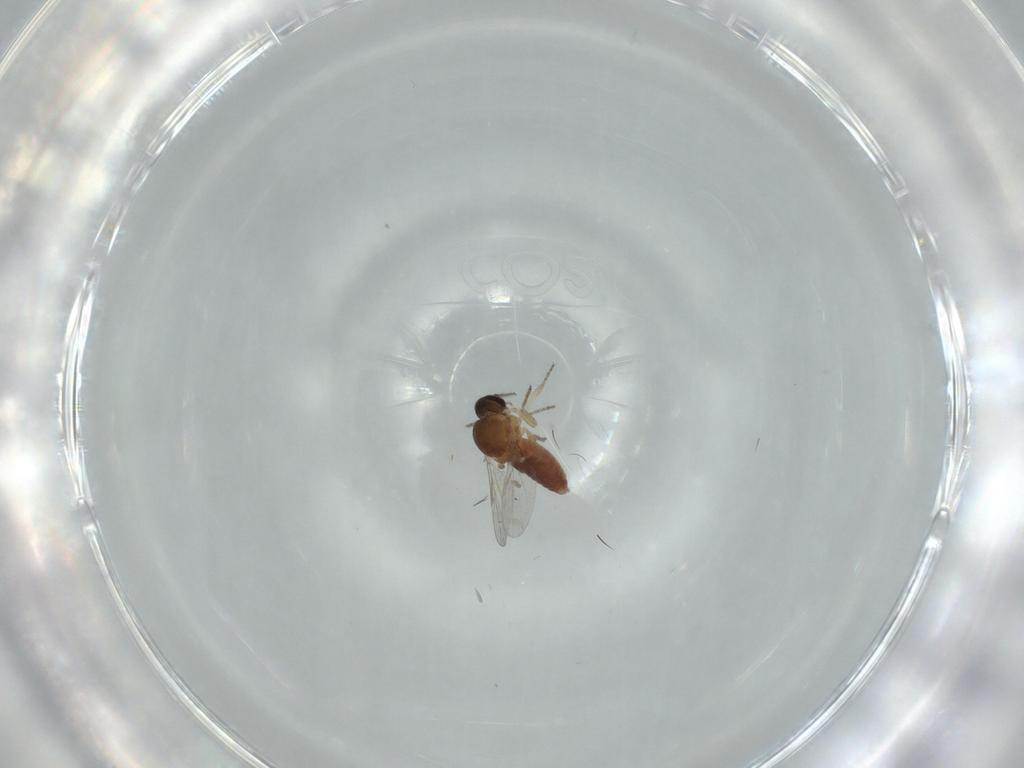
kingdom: Animalia
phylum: Arthropoda
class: Insecta
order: Diptera
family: Ceratopogonidae
